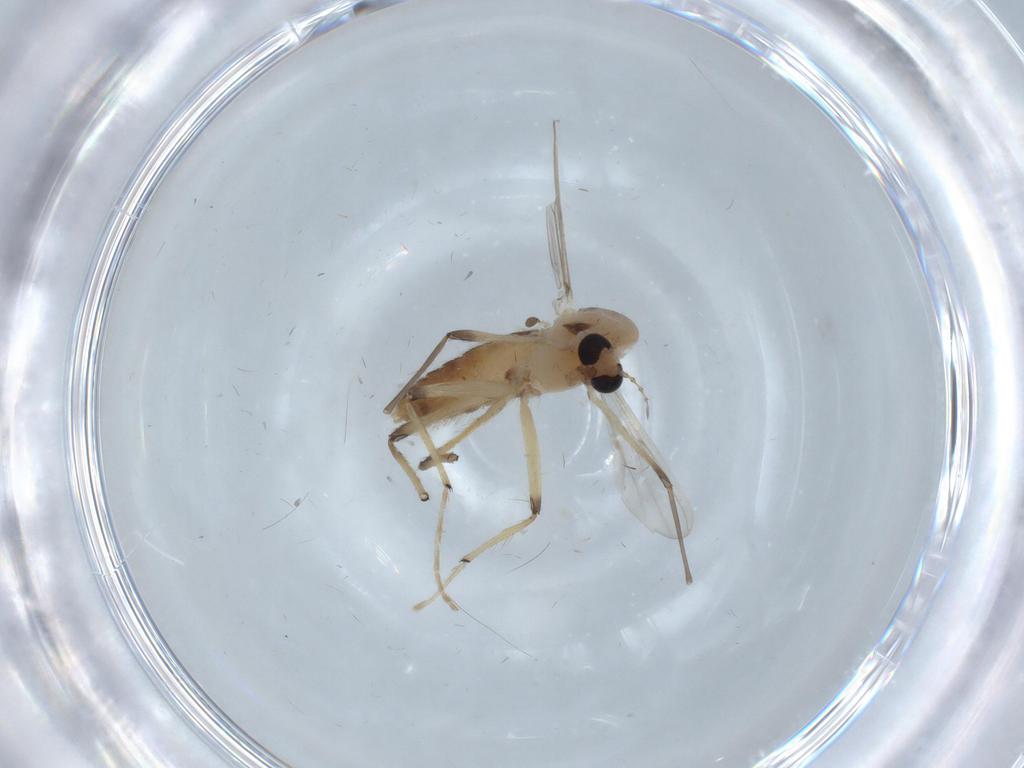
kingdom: Animalia
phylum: Arthropoda
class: Insecta
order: Diptera
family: Chironomidae
